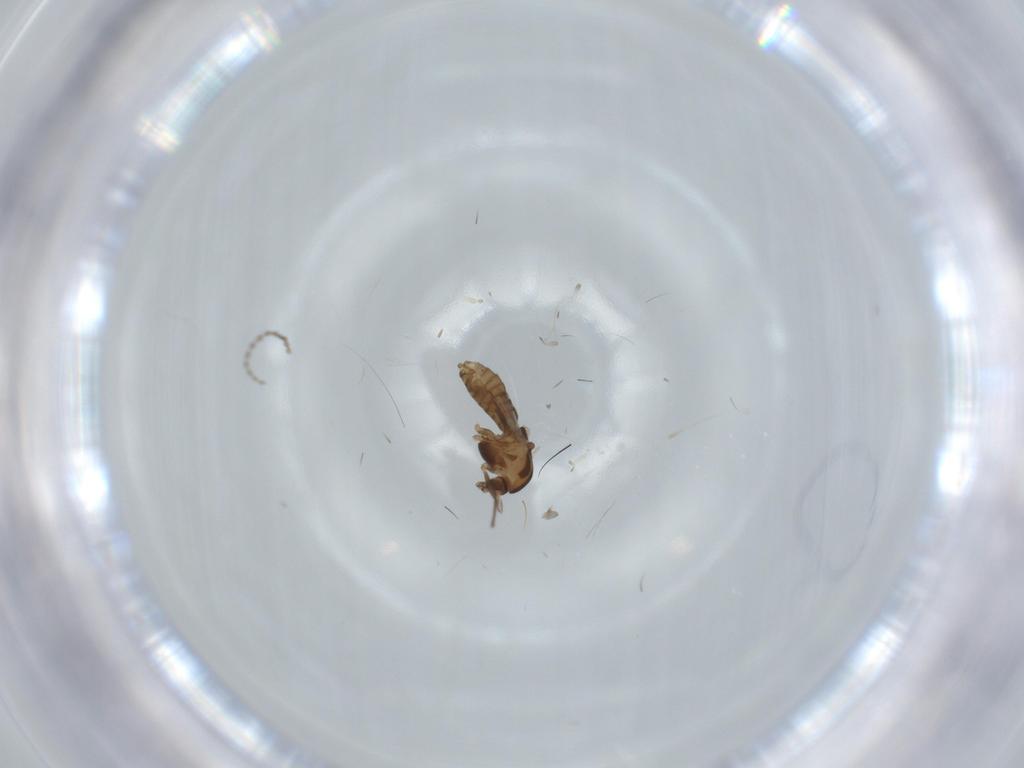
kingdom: Animalia
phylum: Arthropoda
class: Insecta
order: Diptera
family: Chironomidae
